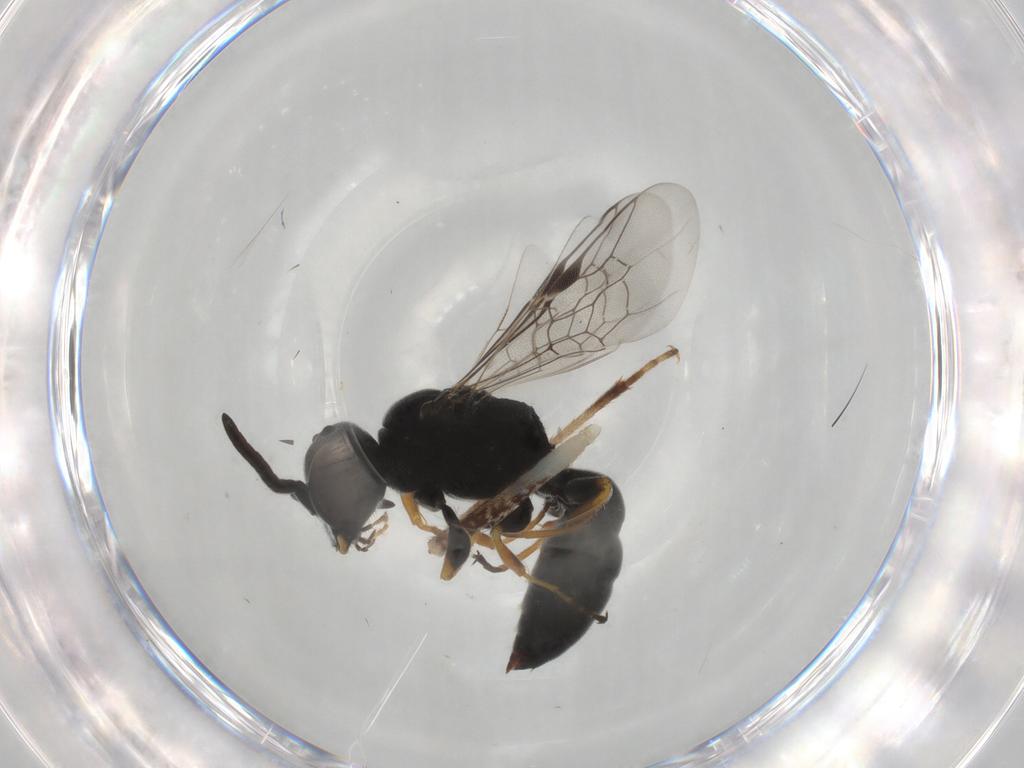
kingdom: Animalia
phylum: Arthropoda
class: Insecta
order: Hymenoptera
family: Pemphredonidae
